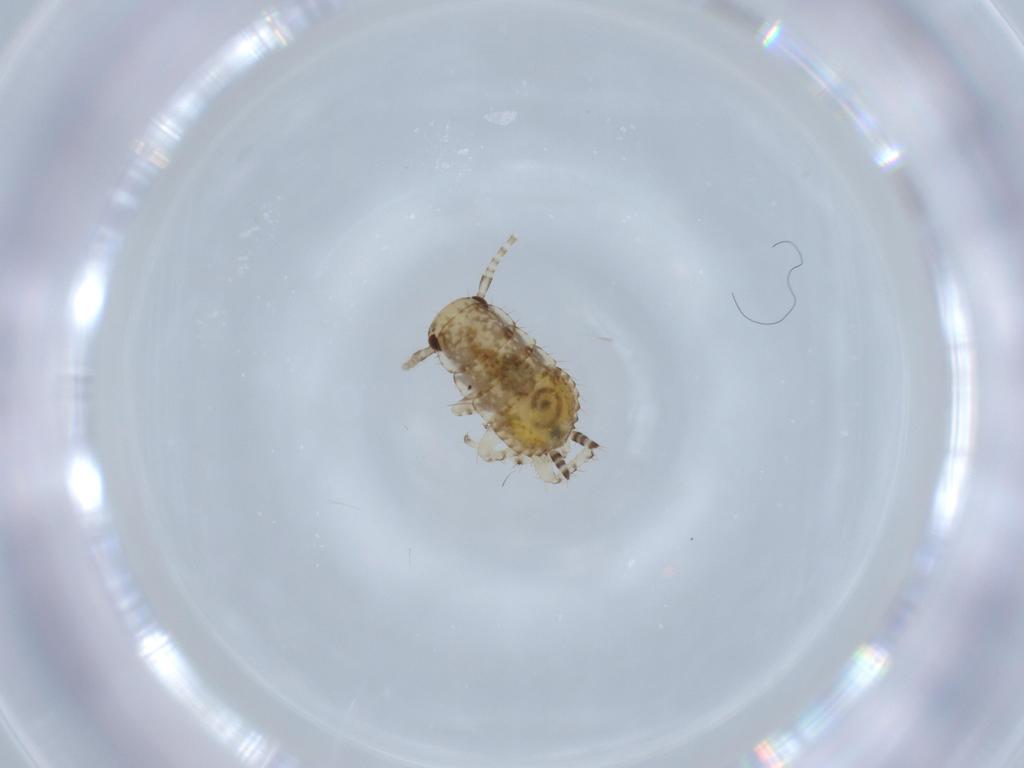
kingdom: Animalia
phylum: Arthropoda
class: Insecta
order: Blattodea
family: Ectobiidae
